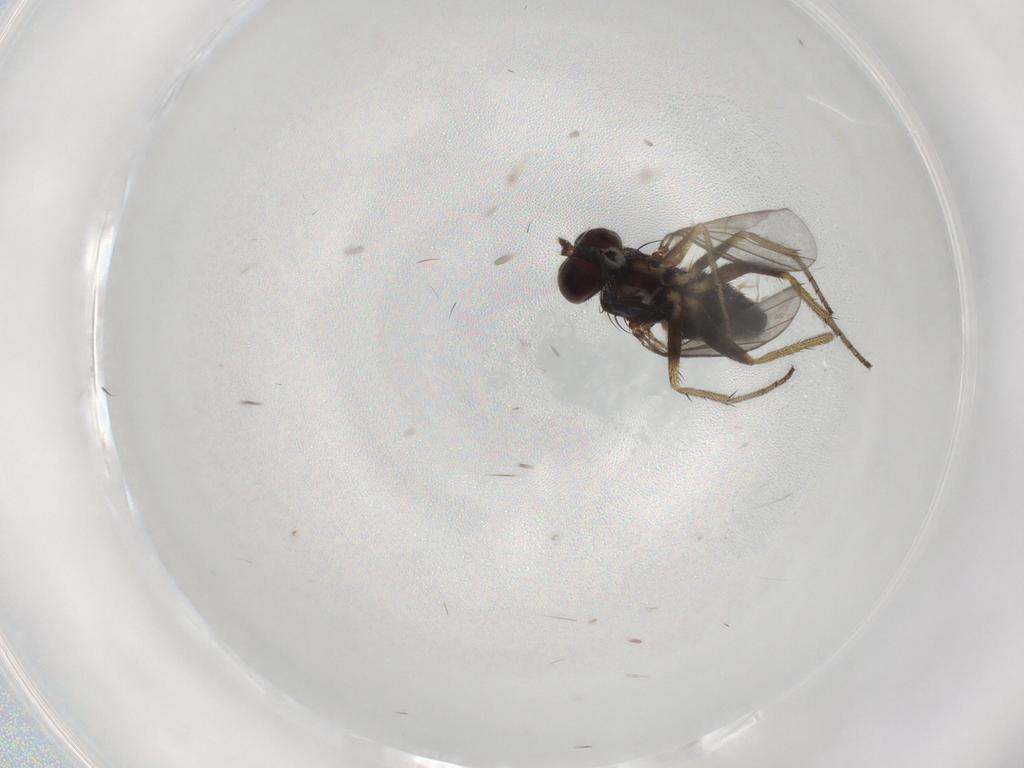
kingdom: Animalia
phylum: Arthropoda
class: Insecta
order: Diptera
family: Dolichopodidae
